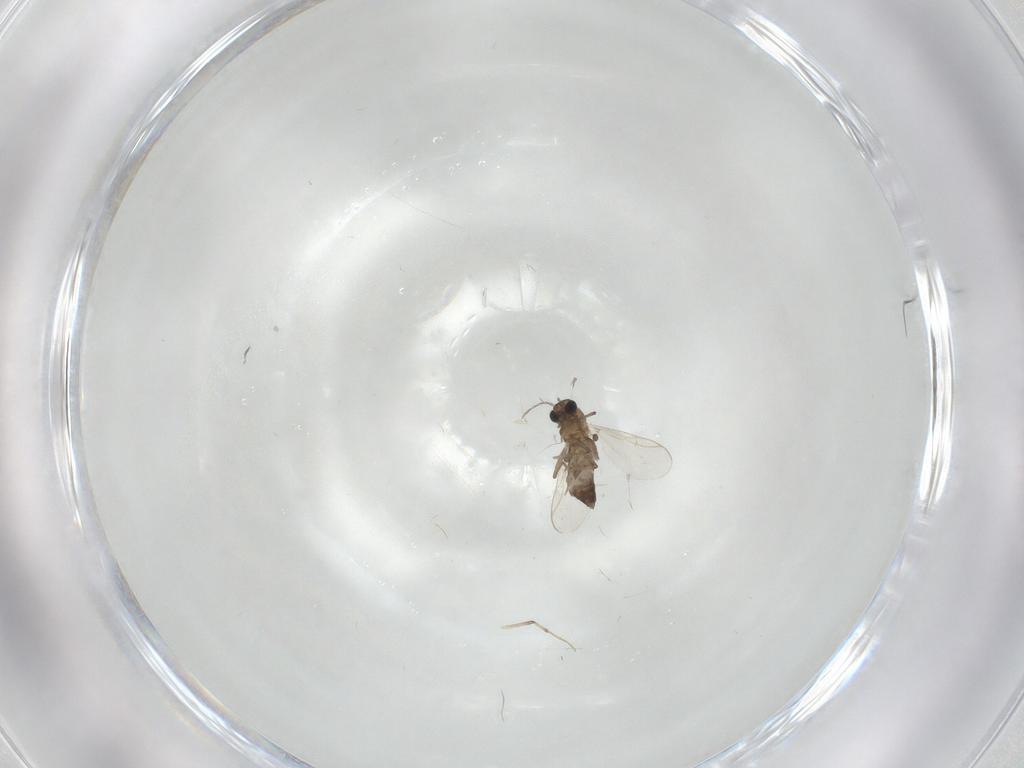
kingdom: Animalia
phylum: Arthropoda
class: Insecta
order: Diptera
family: Chironomidae
